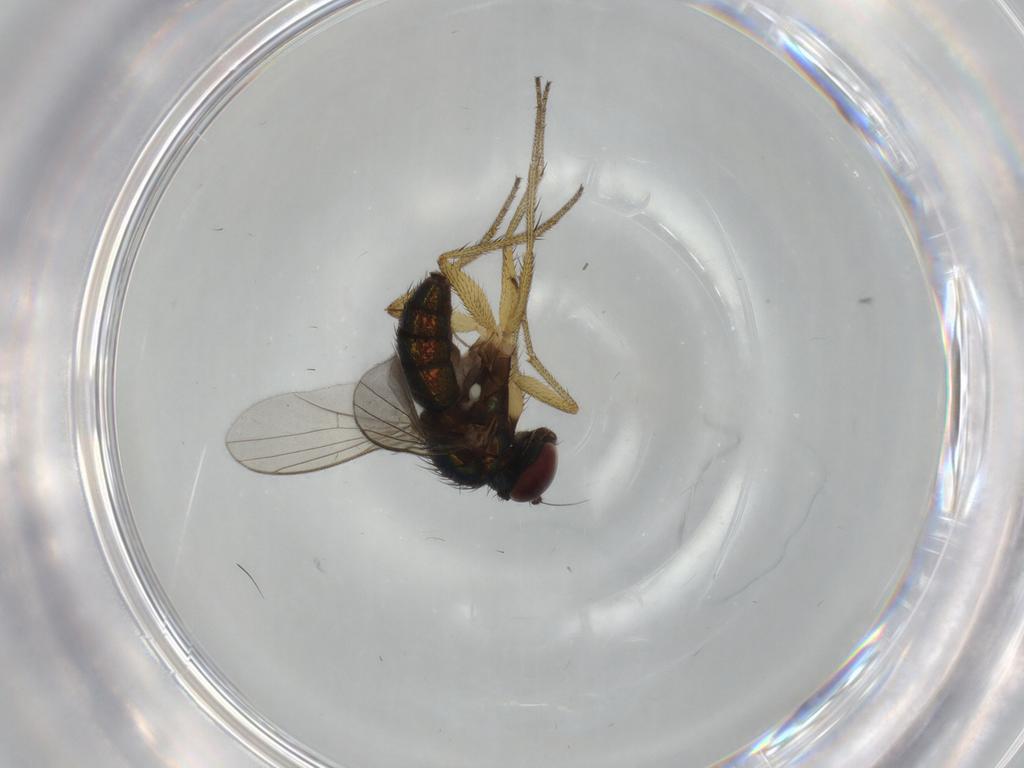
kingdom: Animalia
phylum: Arthropoda
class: Insecta
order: Diptera
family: Dolichopodidae
